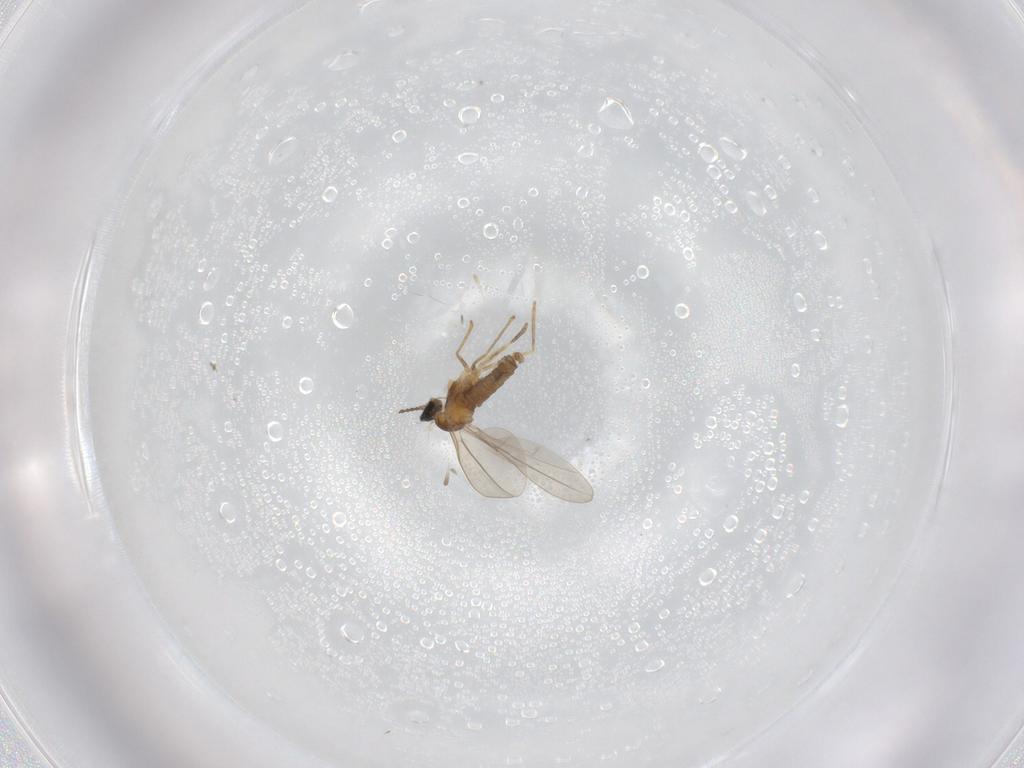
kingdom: Animalia
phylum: Arthropoda
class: Insecta
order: Diptera
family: Cecidomyiidae
